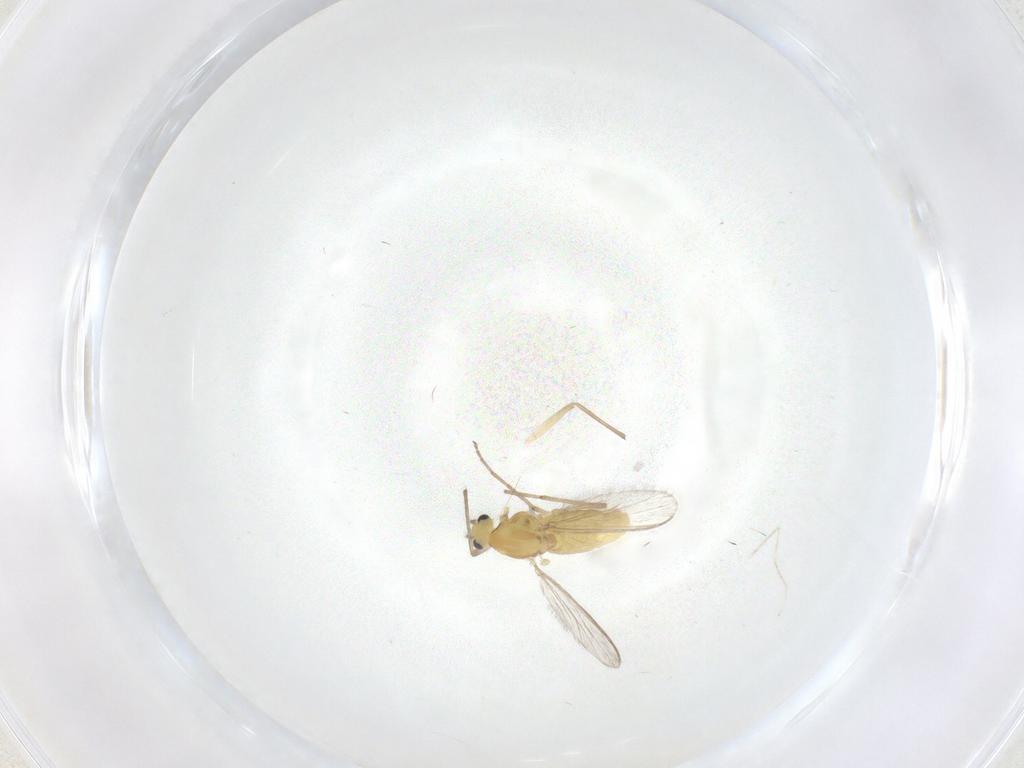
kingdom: Animalia
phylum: Arthropoda
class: Insecta
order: Diptera
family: Chironomidae
